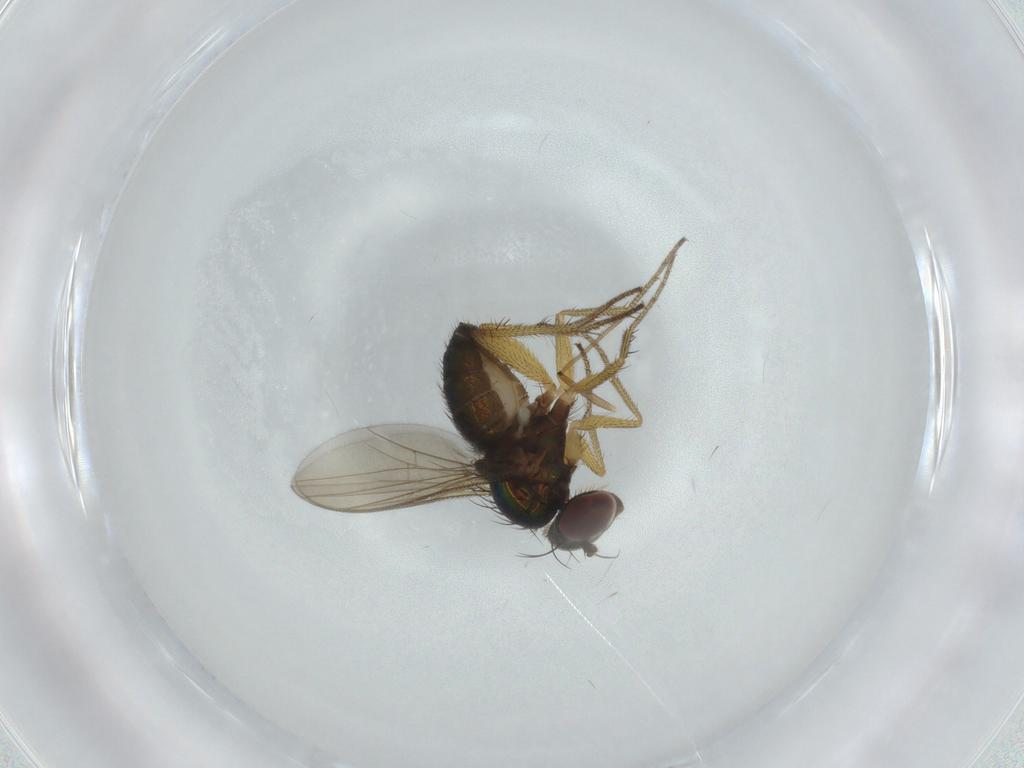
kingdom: Animalia
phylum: Arthropoda
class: Insecta
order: Diptera
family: Dolichopodidae
